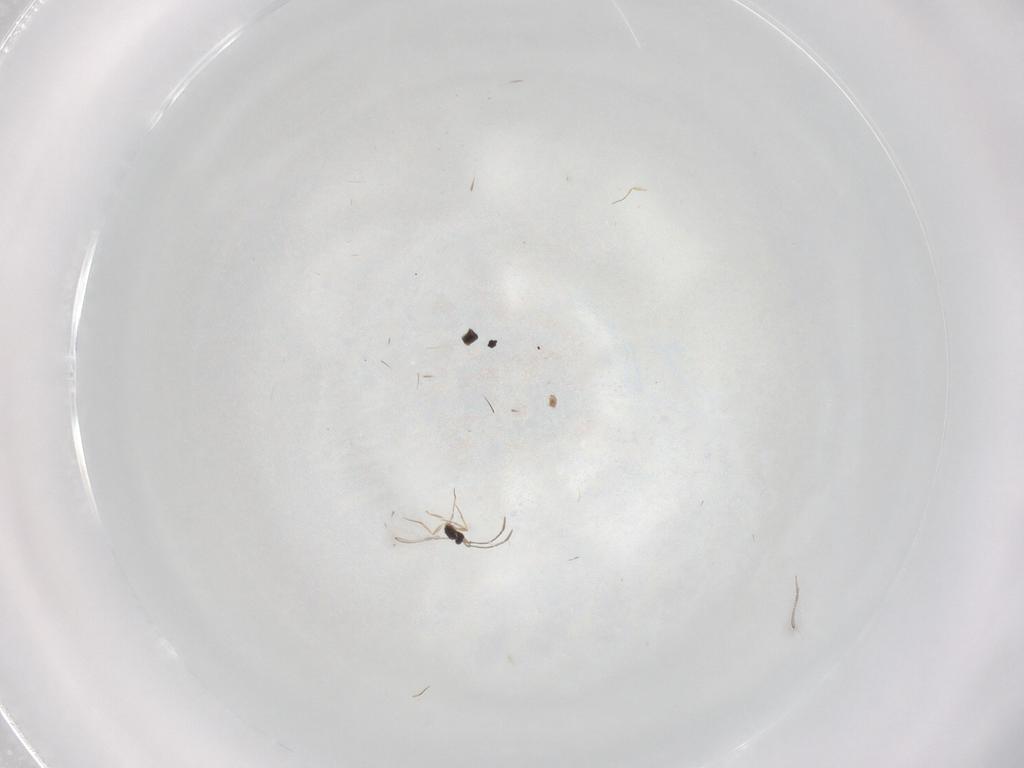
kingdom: Animalia
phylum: Arthropoda
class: Insecta
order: Hymenoptera
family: Mymaridae
